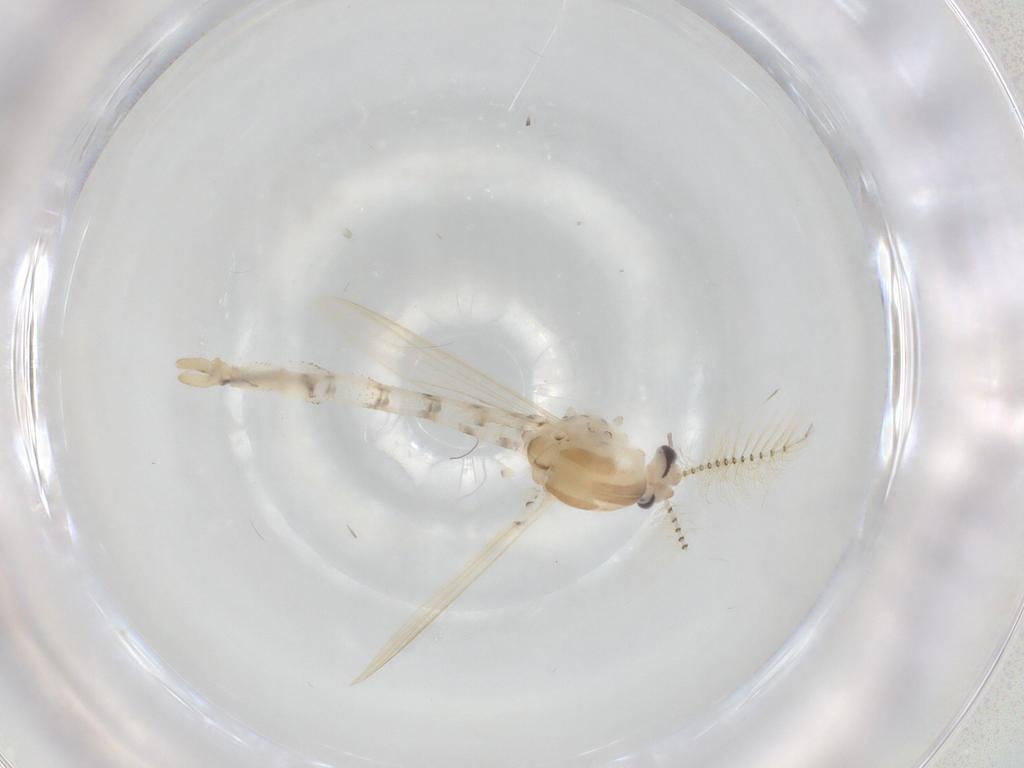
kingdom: Animalia
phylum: Arthropoda
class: Insecta
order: Diptera
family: Chaoboridae
